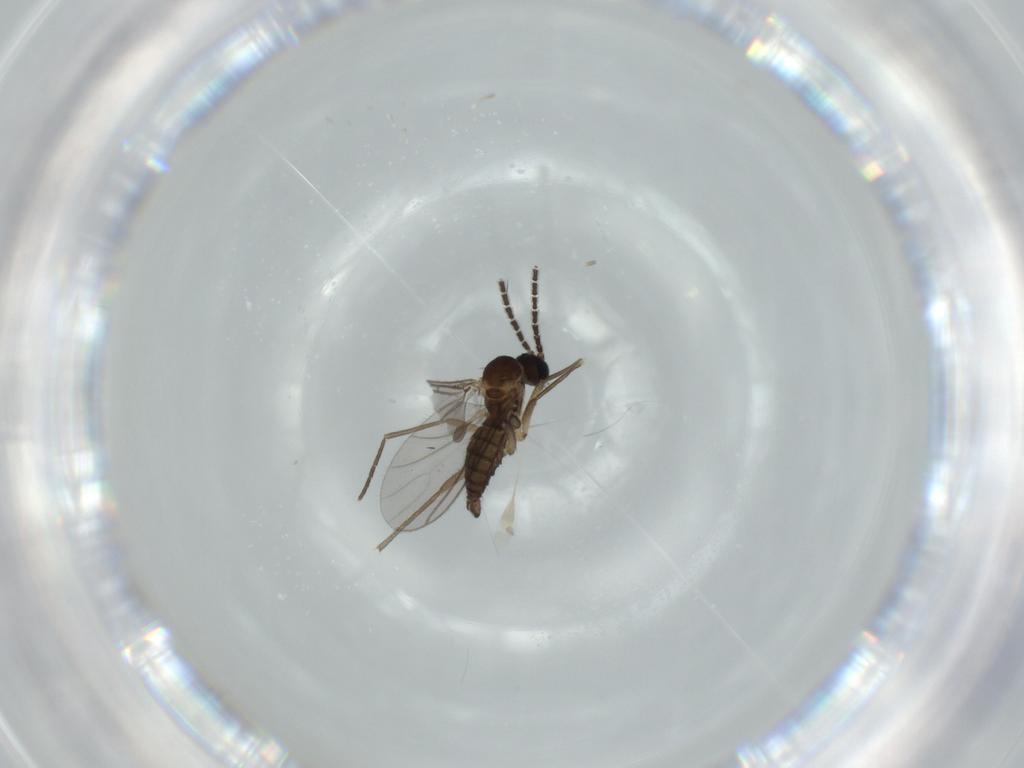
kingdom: Animalia
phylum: Arthropoda
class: Insecta
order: Diptera
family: Sciaridae
